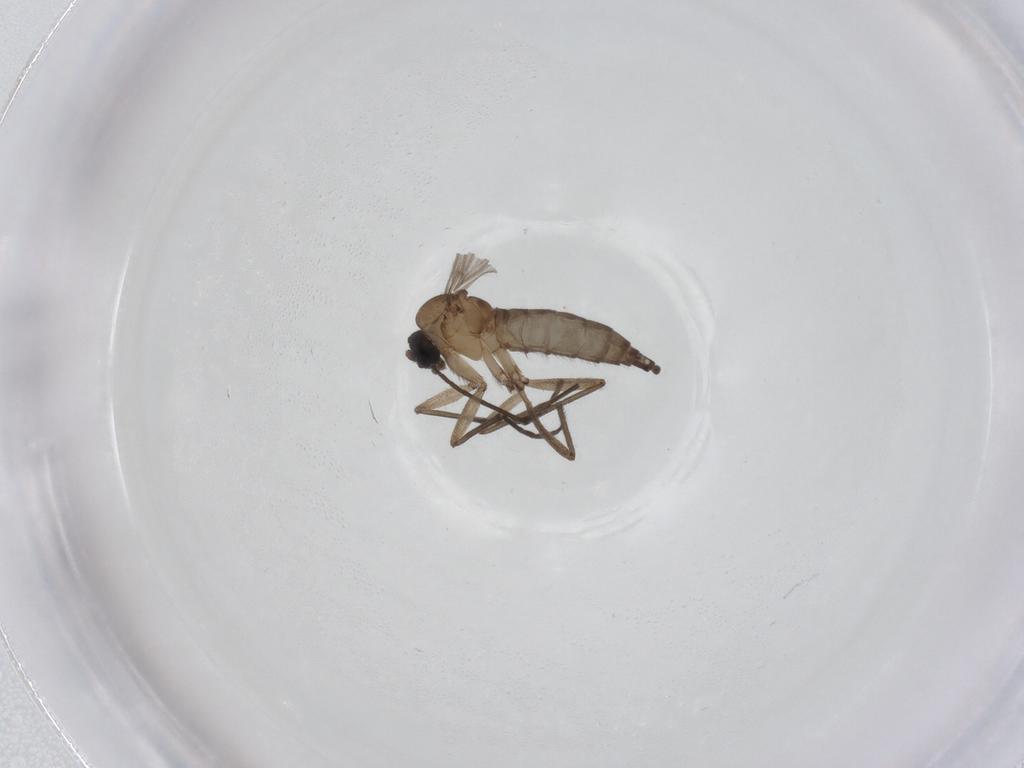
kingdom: Animalia
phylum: Arthropoda
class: Insecta
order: Diptera
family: Sciaridae
